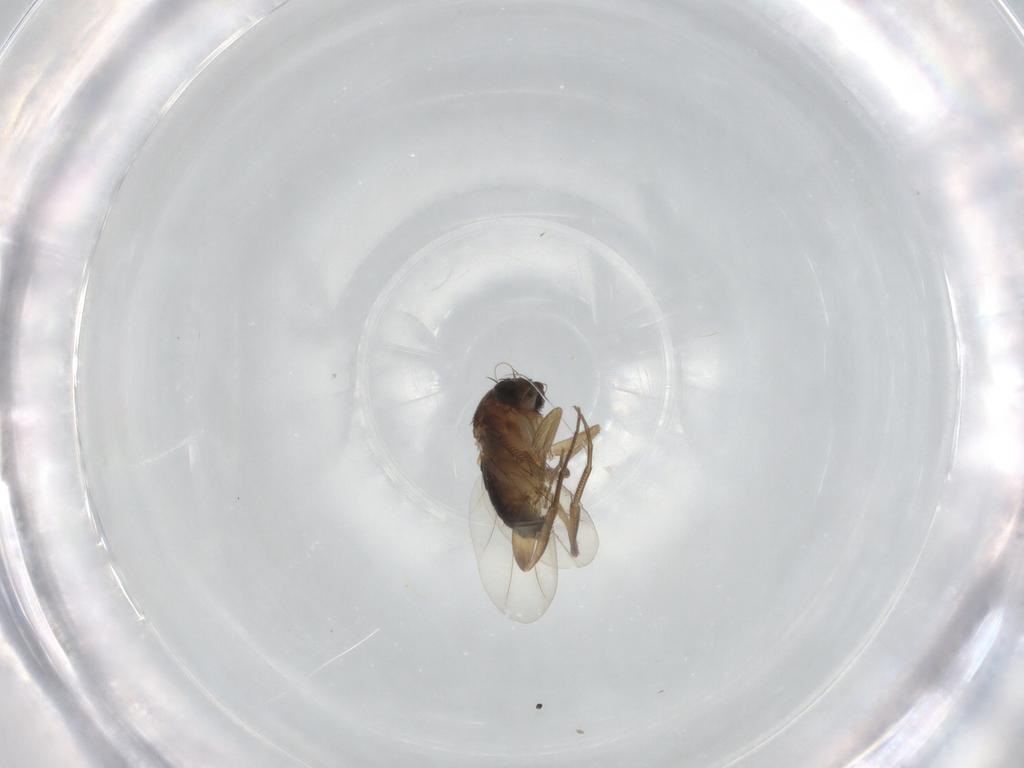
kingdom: Animalia
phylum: Arthropoda
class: Insecta
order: Diptera
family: Phoridae
